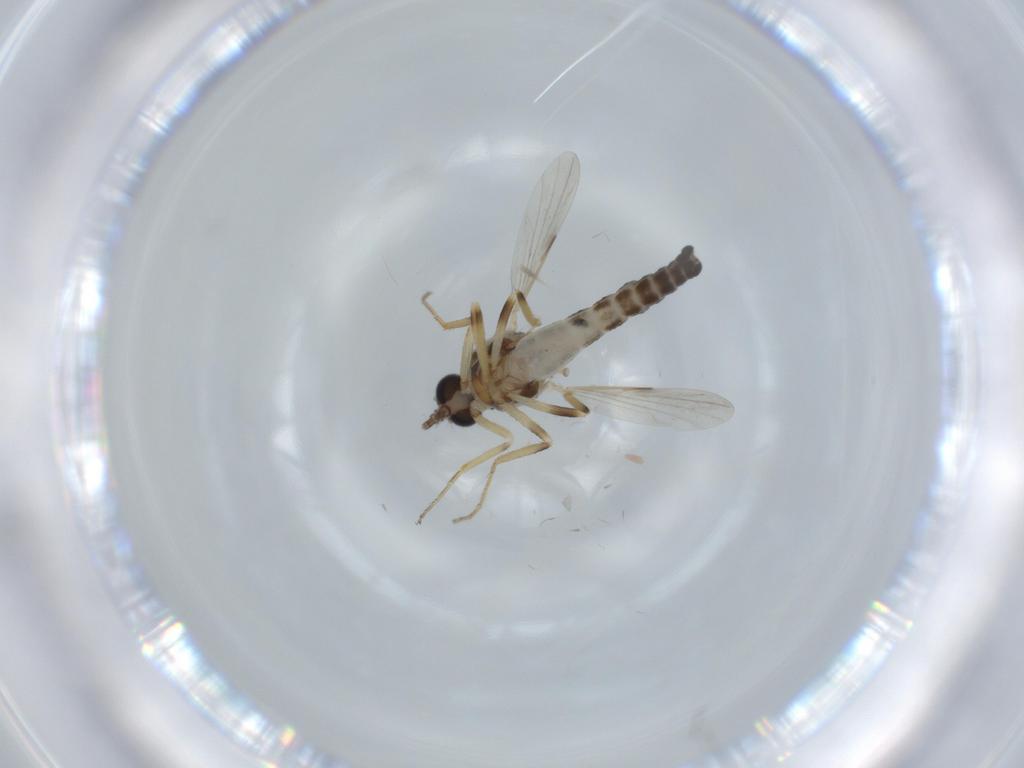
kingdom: Animalia
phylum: Arthropoda
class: Insecta
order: Diptera
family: Ceratopogonidae
